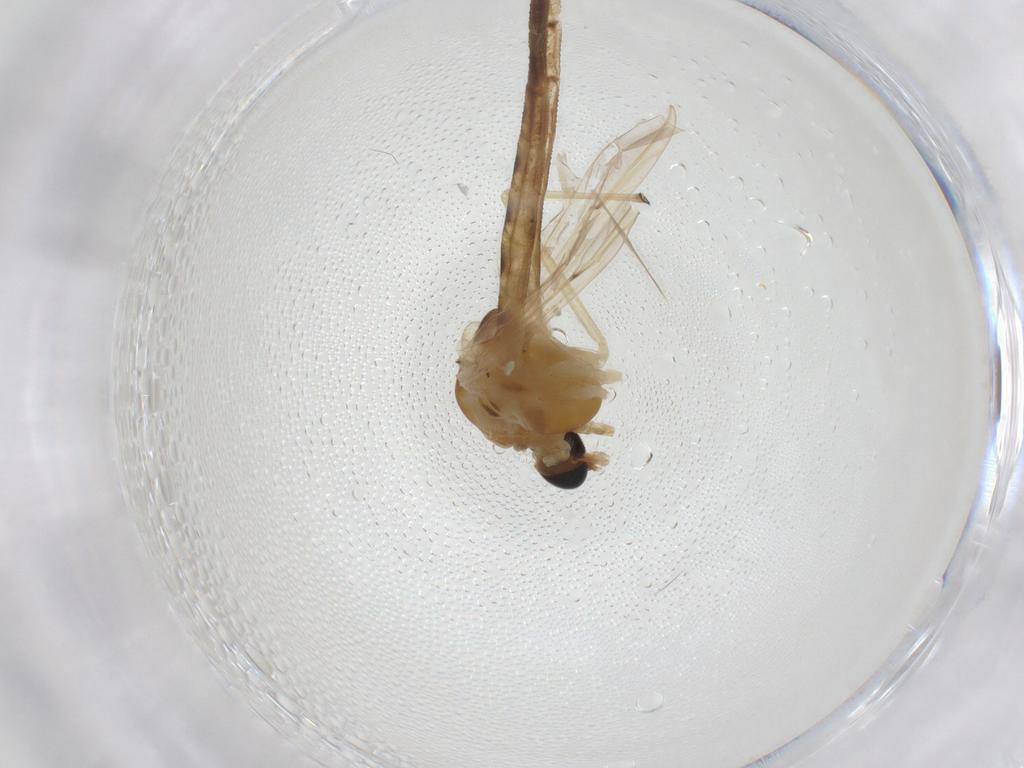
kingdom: Animalia
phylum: Arthropoda
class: Insecta
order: Diptera
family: Chironomidae
